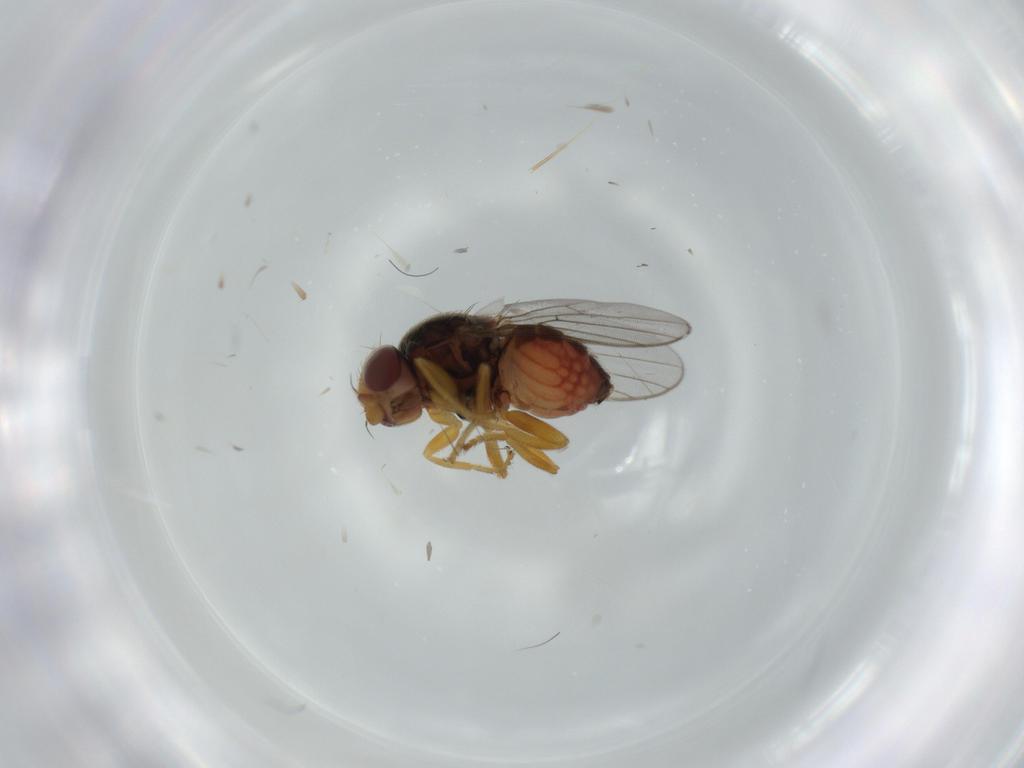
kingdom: Animalia
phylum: Arthropoda
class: Insecta
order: Diptera
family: Chloropidae
